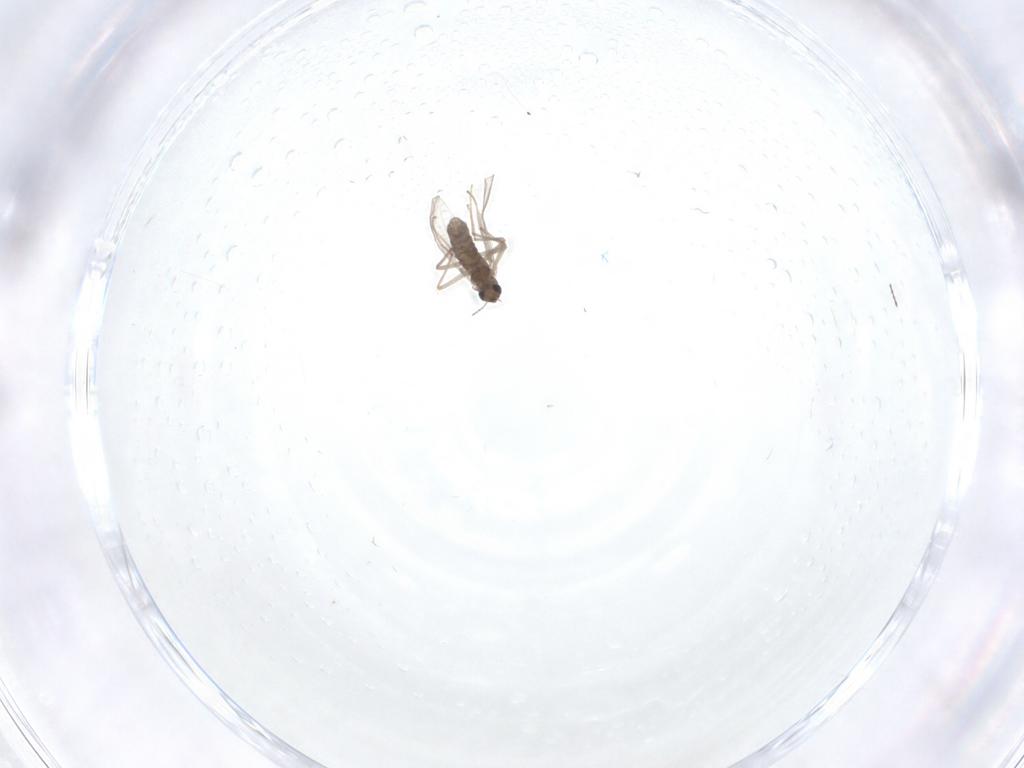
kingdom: Animalia
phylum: Arthropoda
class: Insecta
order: Diptera
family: Chironomidae
